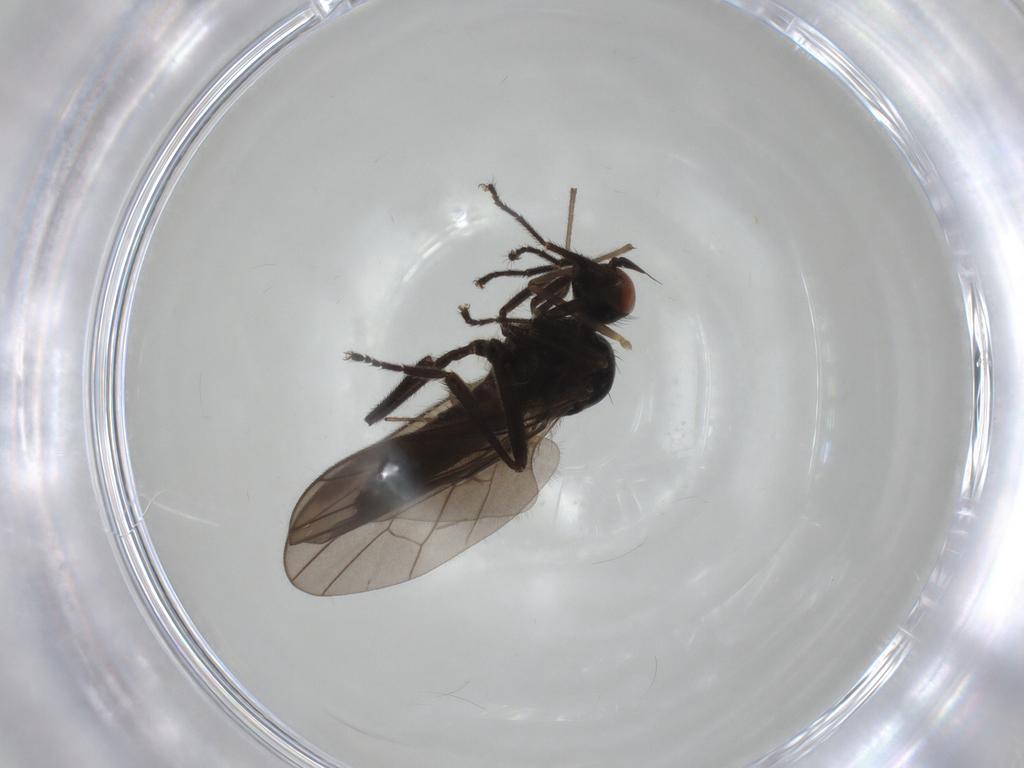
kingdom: Animalia
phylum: Arthropoda
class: Insecta
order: Diptera
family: Hybotidae
